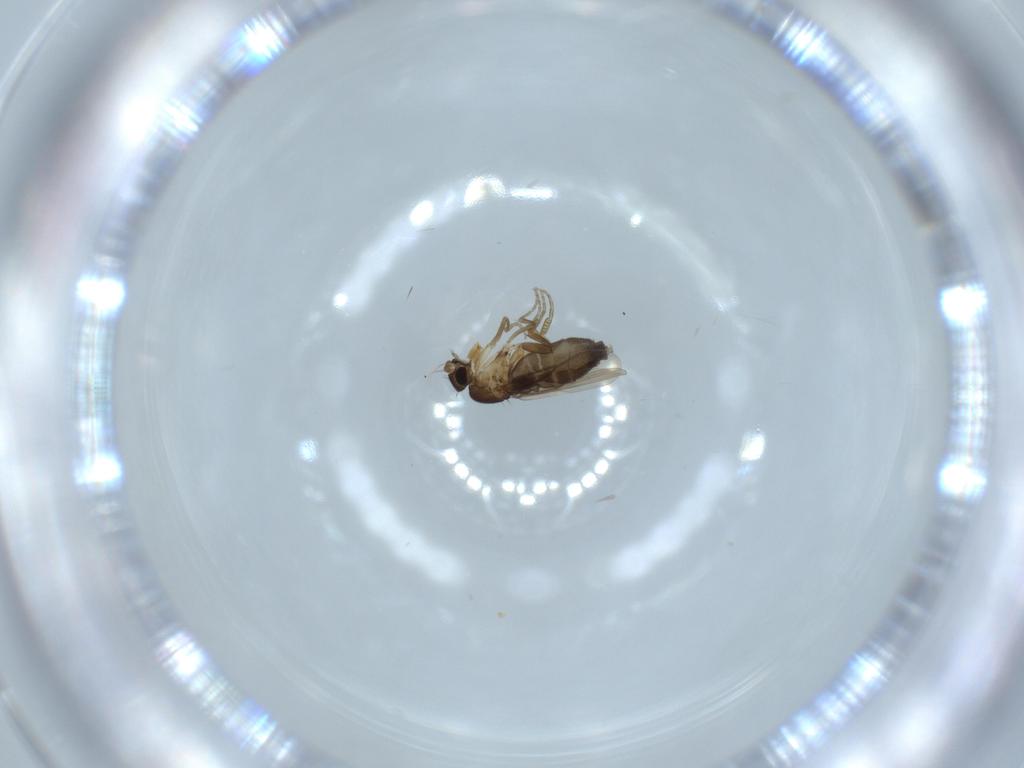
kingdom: Animalia
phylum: Arthropoda
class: Insecta
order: Diptera
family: Phoridae
